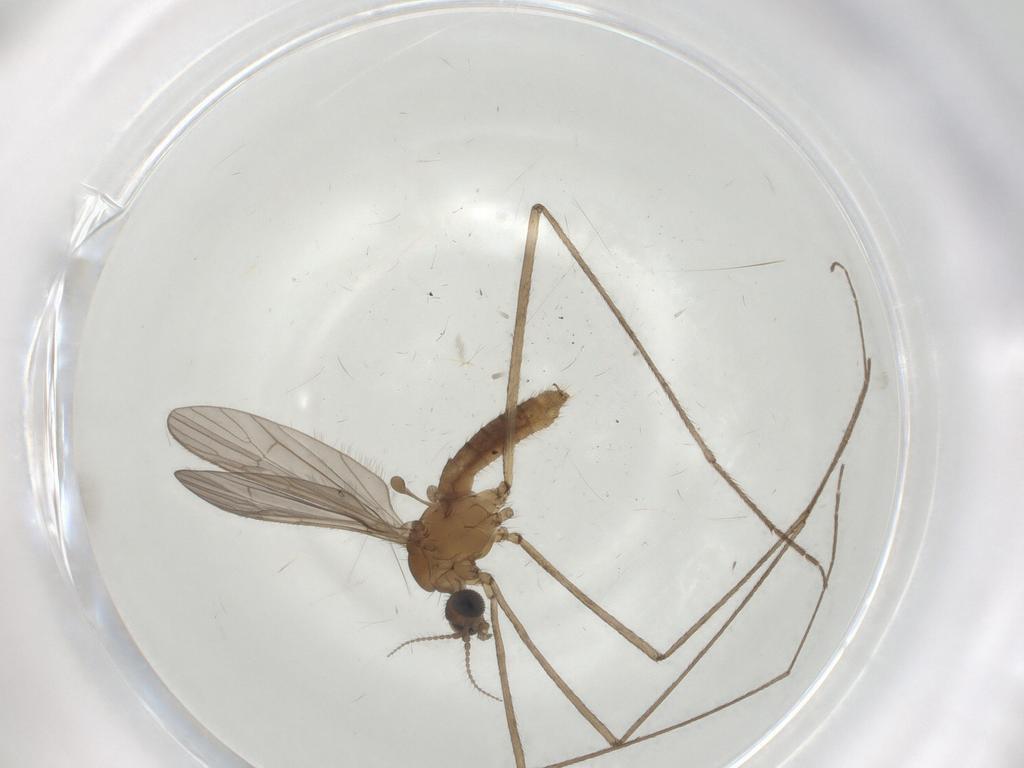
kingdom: Animalia
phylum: Arthropoda
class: Insecta
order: Diptera
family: Limoniidae
